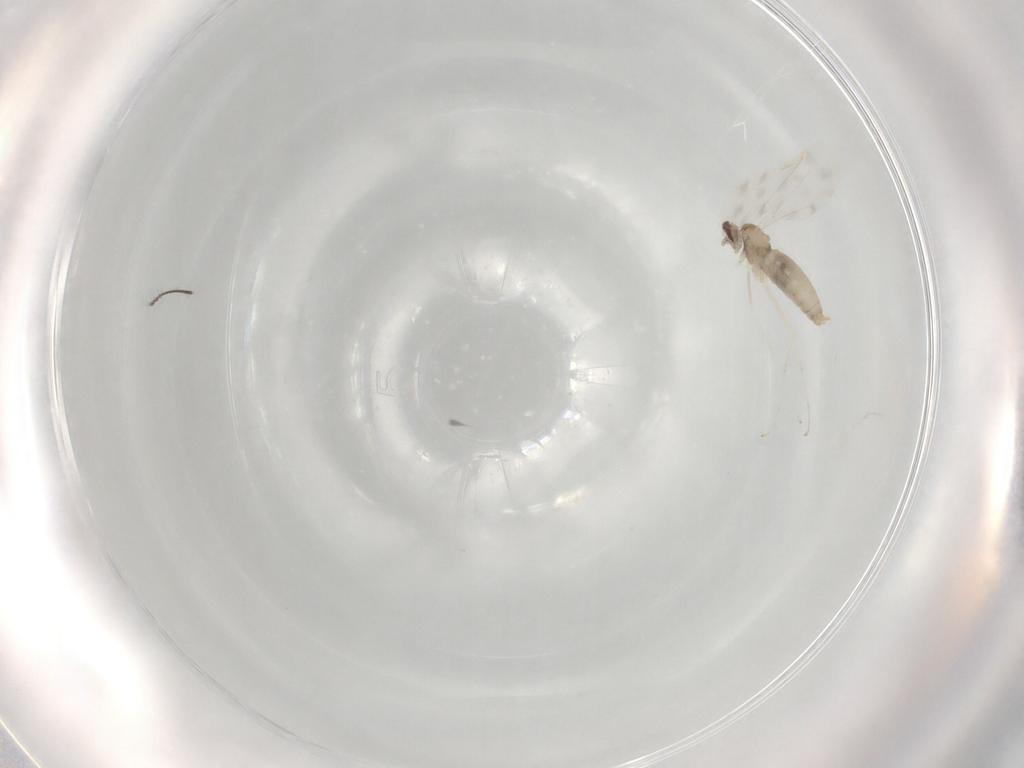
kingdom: Animalia
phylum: Arthropoda
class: Insecta
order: Diptera
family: Cecidomyiidae
